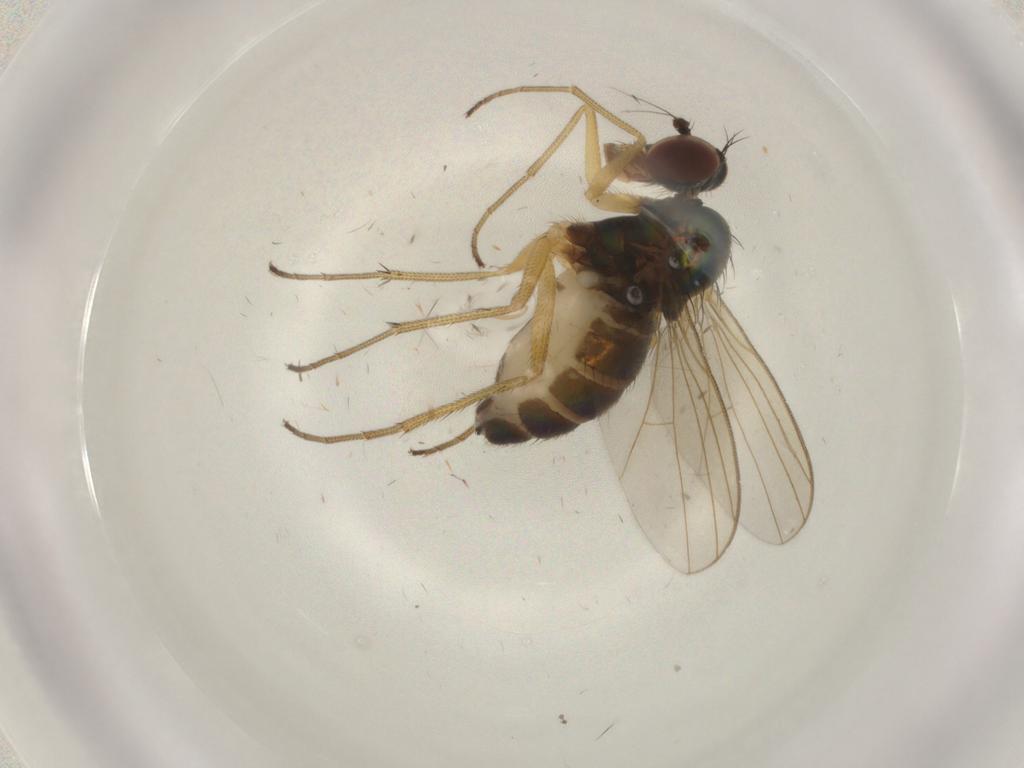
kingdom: Animalia
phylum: Arthropoda
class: Insecta
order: Diptera
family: Dolichopodidae
